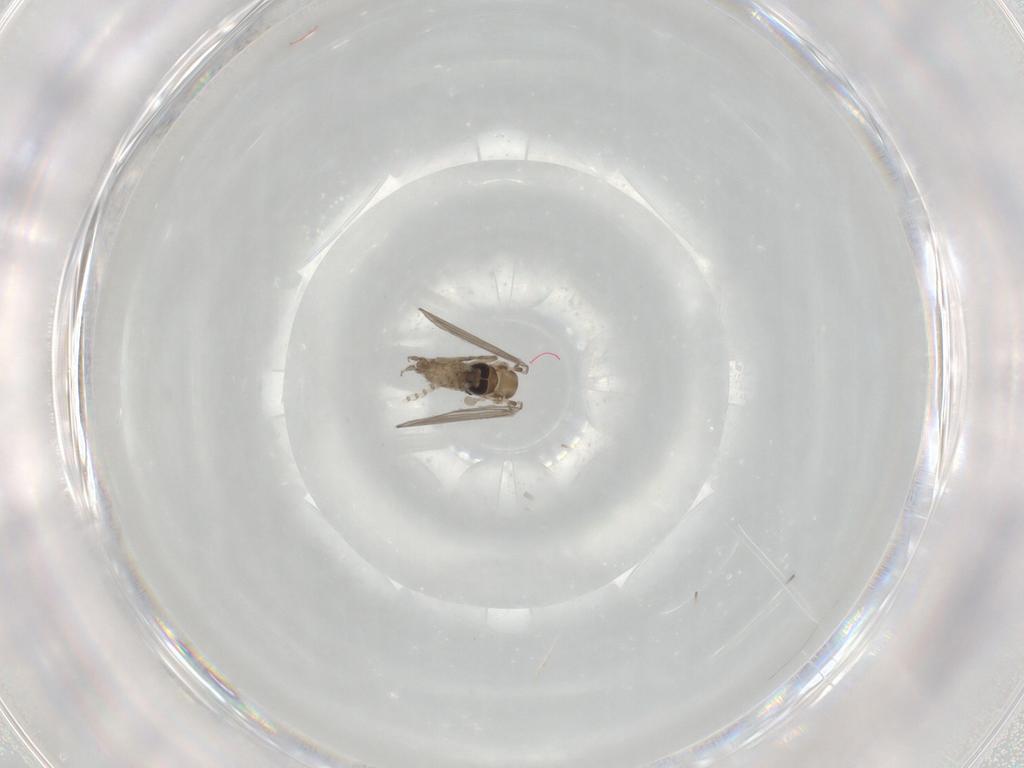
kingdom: Animalia
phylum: Arthropoda
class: Insecta
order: Diptera
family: Psychodidae
